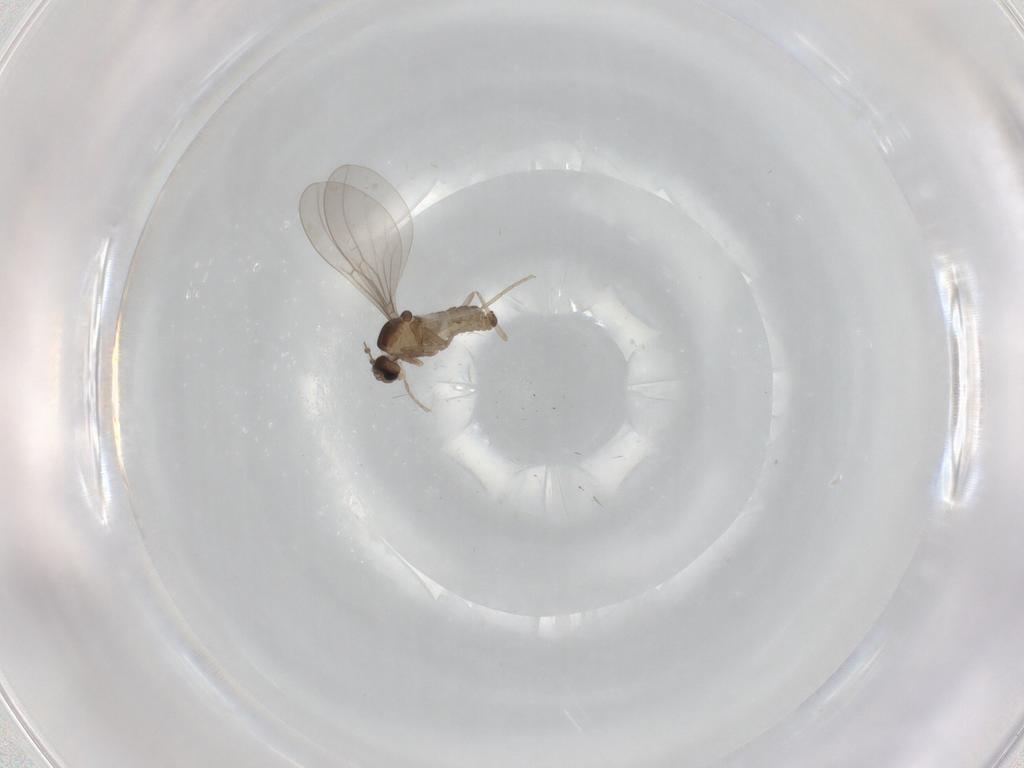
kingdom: Animalia
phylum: Arthropoda
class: Insecta
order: Diptera
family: Cecidomyiidae
